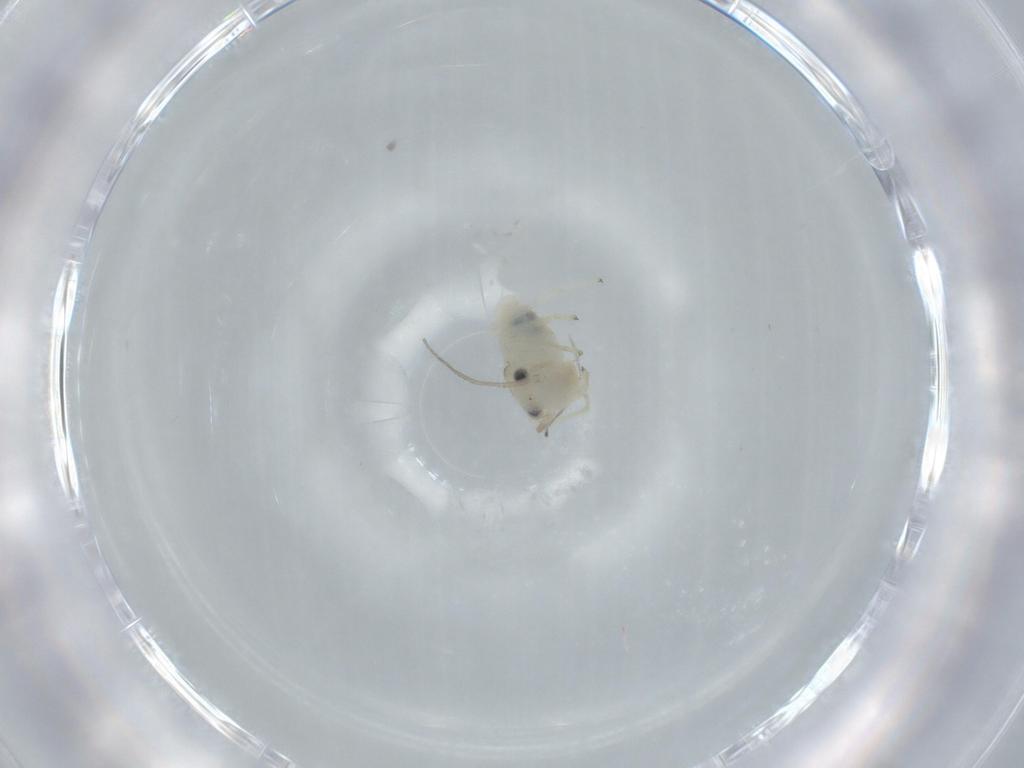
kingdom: Animalia
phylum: Arthropoda
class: Insecta
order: Psocodea
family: Caeciliusidae
